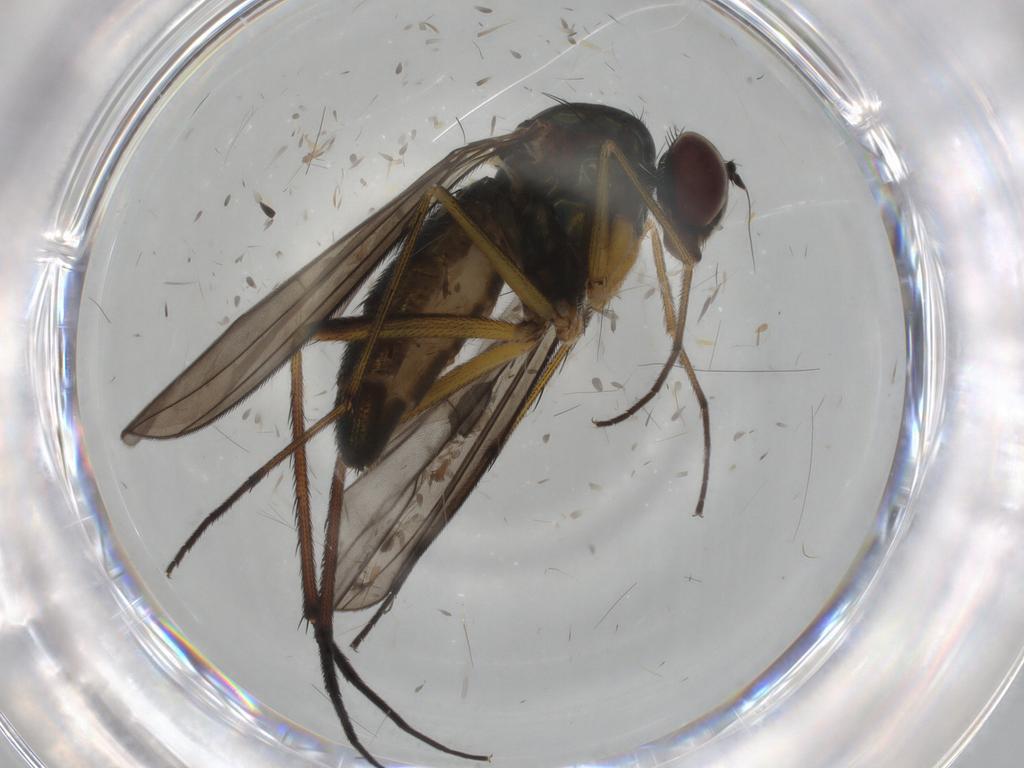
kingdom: Animalia
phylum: Arthropoda
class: Insecta
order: Diptera
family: Dolichopodidae
